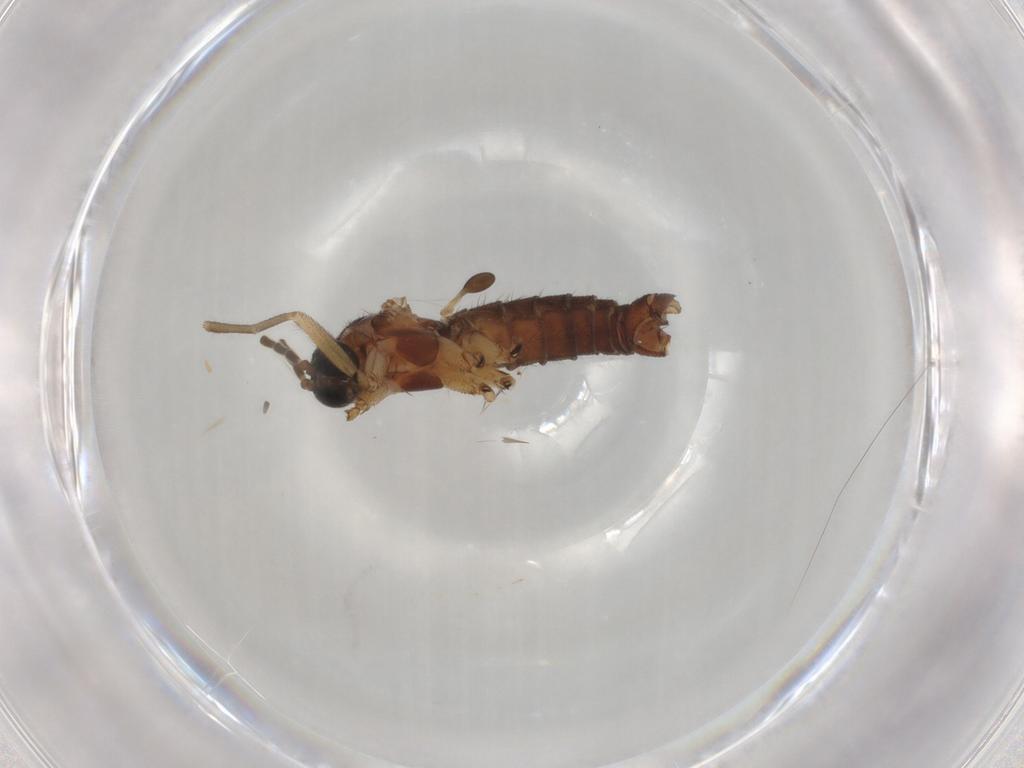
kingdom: Animalia
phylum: Arthropoda
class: Insecta
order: Diptera
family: Sciaridae
